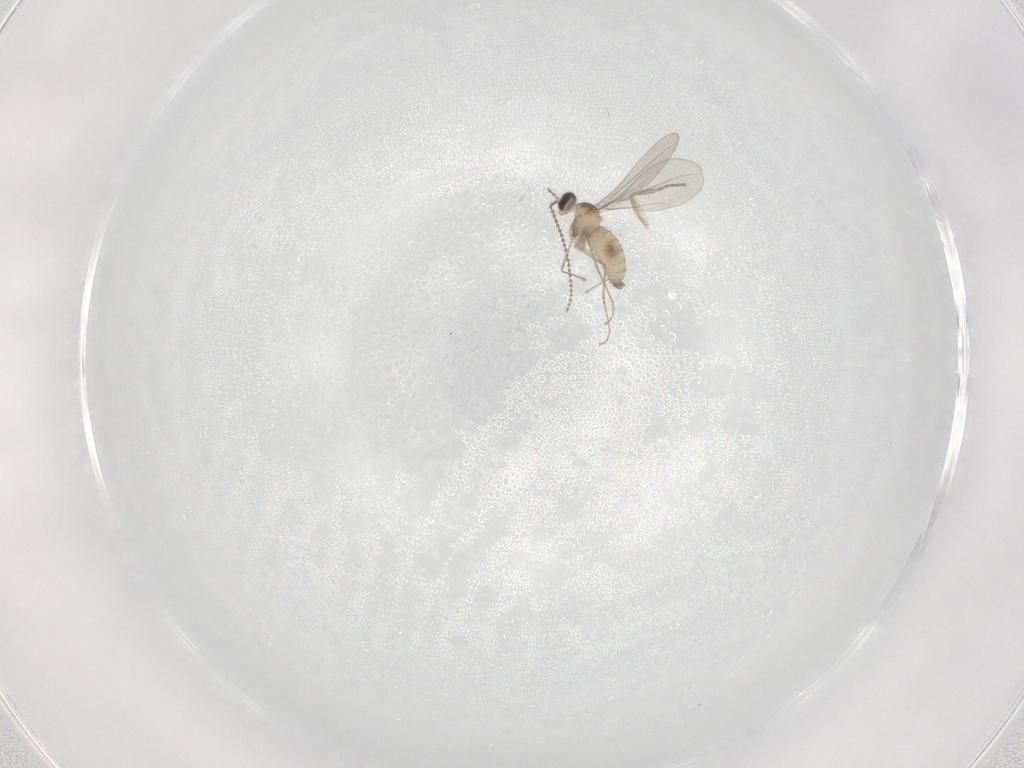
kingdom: Animalia
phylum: Arthropoda
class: Insecta
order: Diptera
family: Cecidomyiidae
